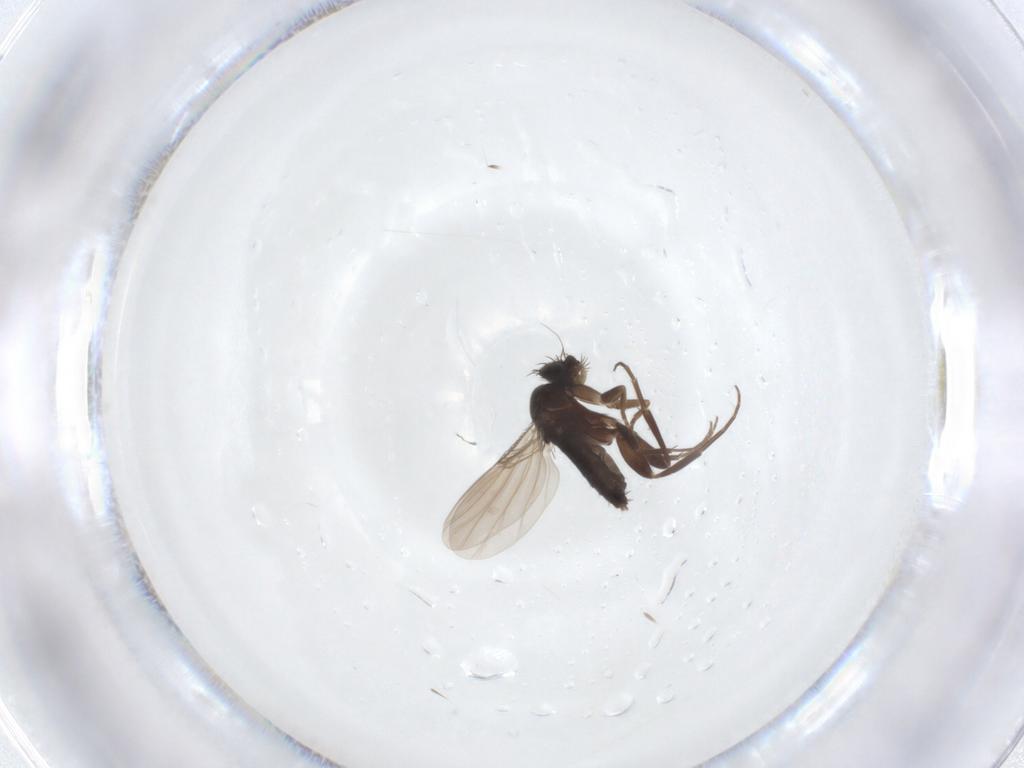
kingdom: Animalia
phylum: Arthropoda
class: Insecta
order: Diptera
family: Phoridae
